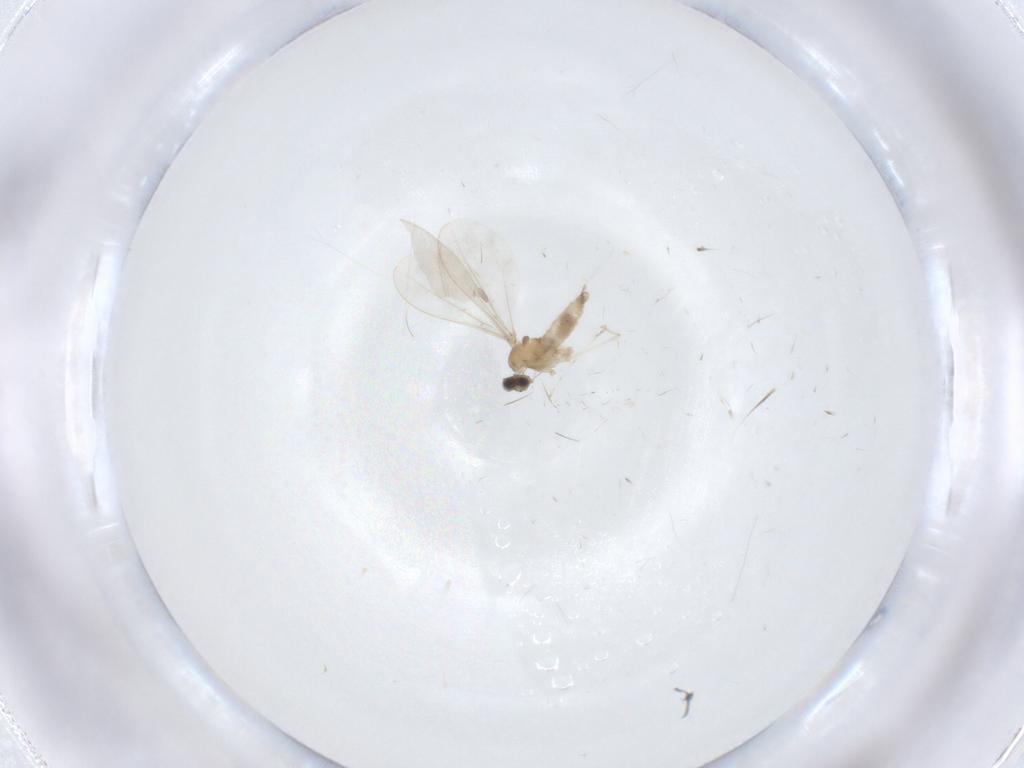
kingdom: Animalia
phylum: Arthropoda
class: Insecta
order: Diptera
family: Cecidomyiidae
